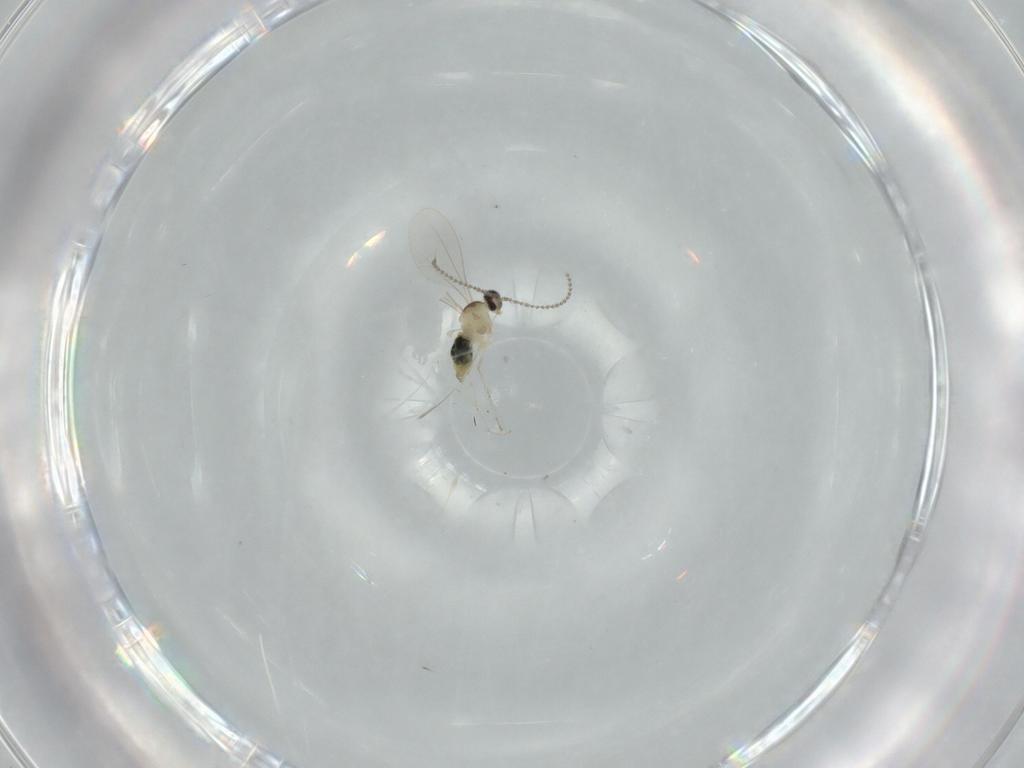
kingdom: Animalia
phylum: Arthropoda
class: Insecta
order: Diptera
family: Cecidomyiidae
